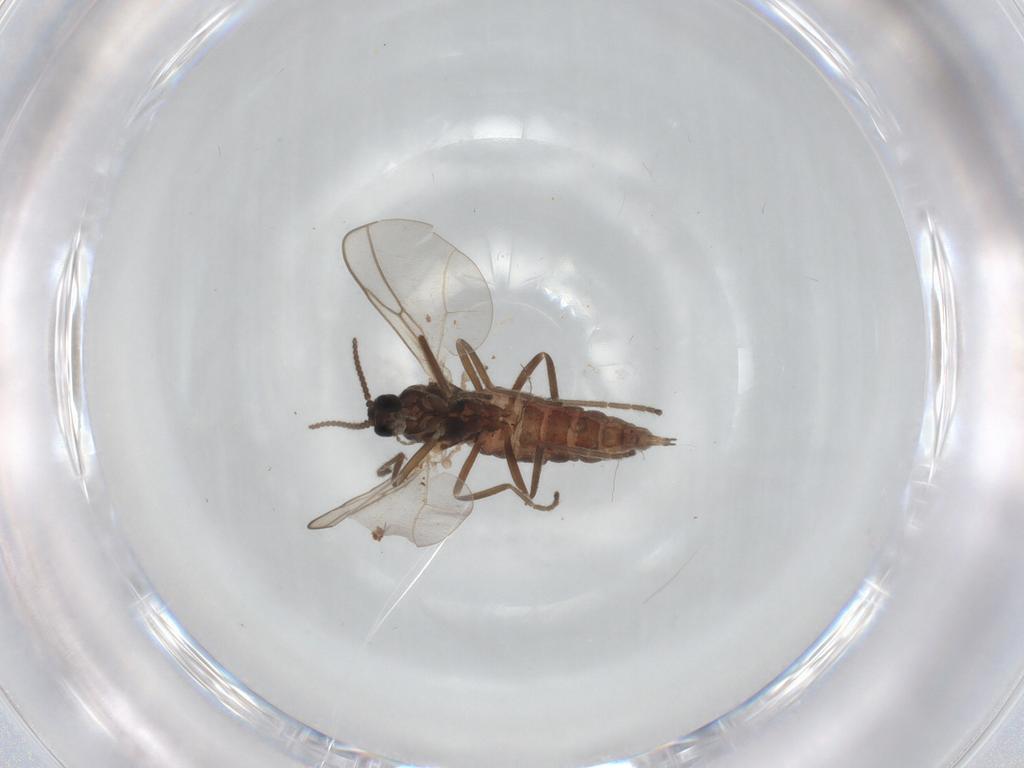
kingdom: Animalia
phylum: Arthropoda
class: Insecta
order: Diptera
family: Cecidomyiidae
